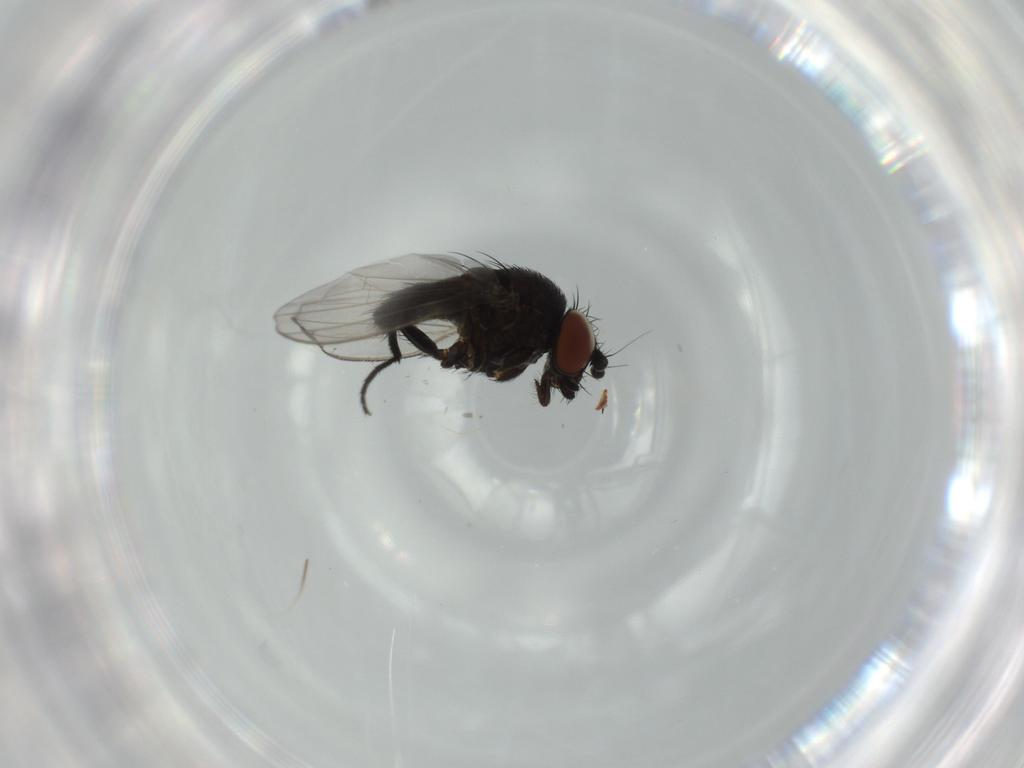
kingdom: Animalia
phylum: Arthropoda
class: Insecta
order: Diptera
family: Milichiidae
